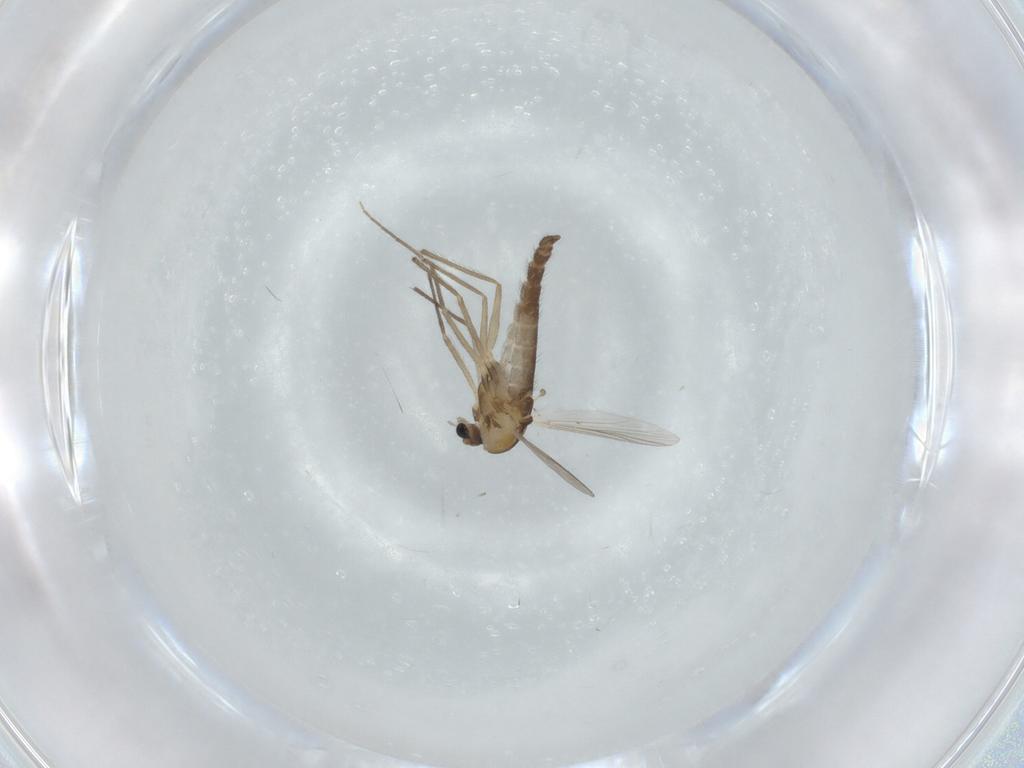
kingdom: Animalia
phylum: Arthropoda
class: Insecta
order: Diptera
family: Chironomidae
